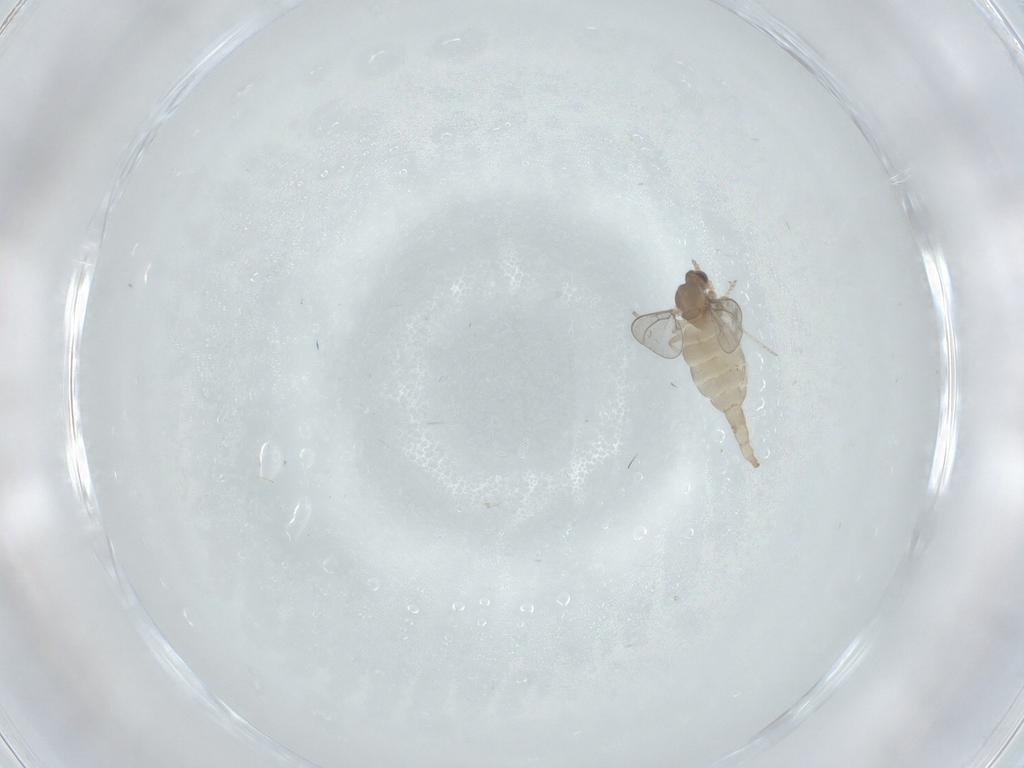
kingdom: Animalia
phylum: Arthropoda
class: Insecta
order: Diptera
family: Cecidomyiidae
